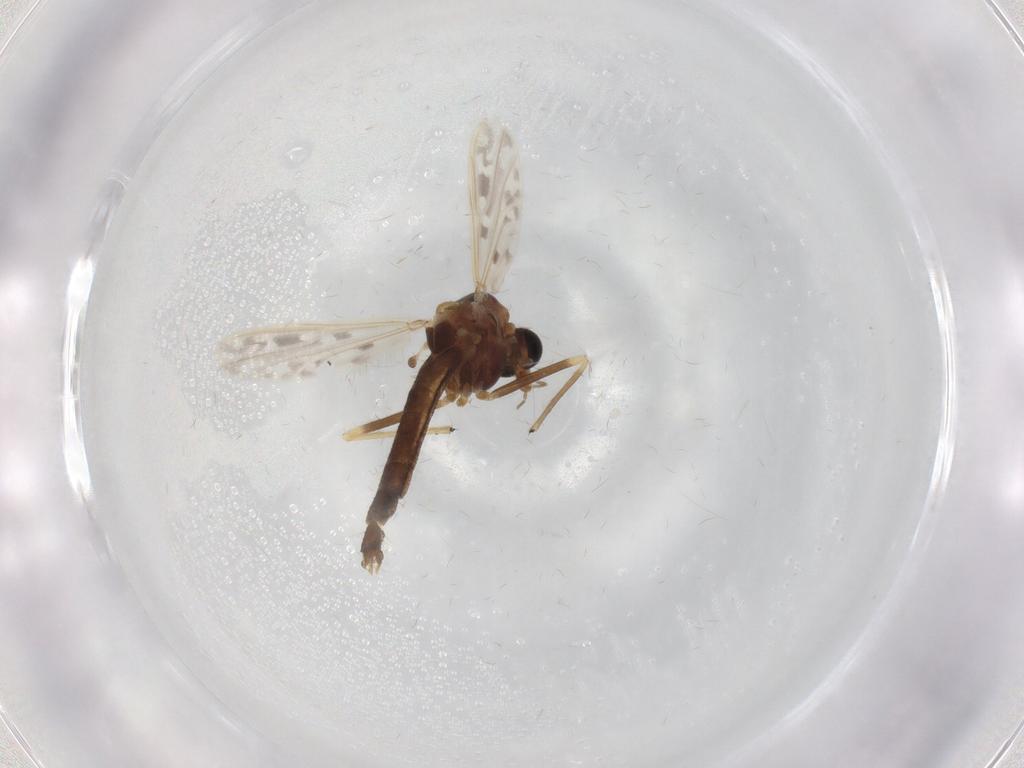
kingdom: Animalia
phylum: Arthropoda
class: Insecta
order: Diptera
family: Chironomidae
